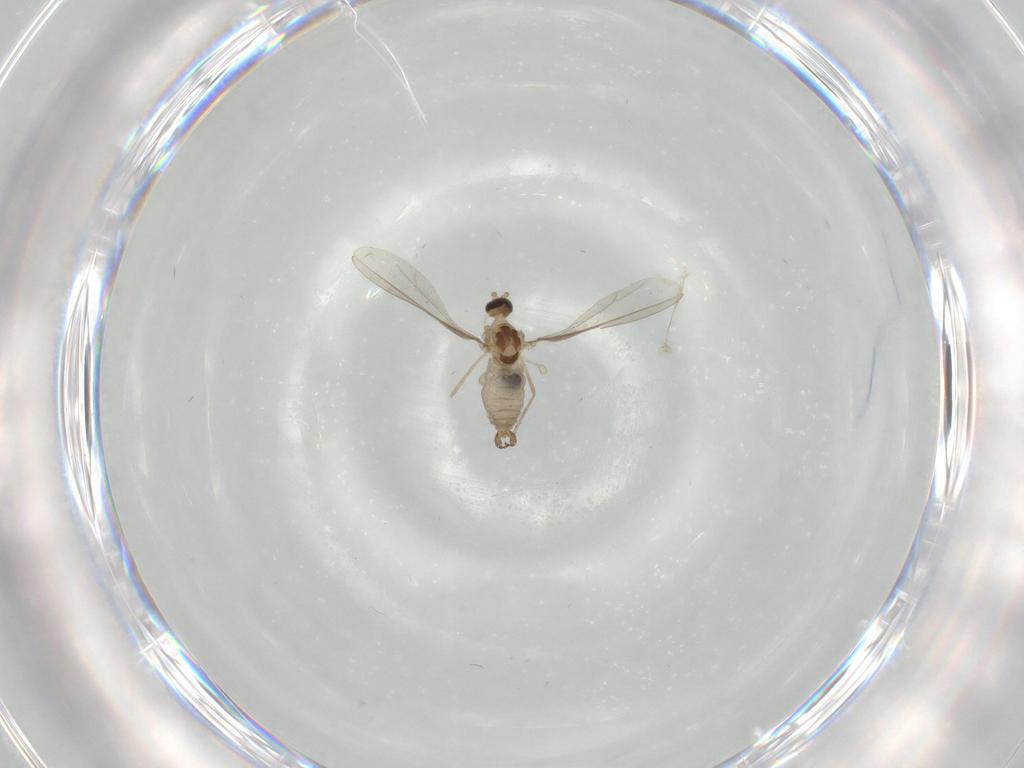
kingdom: Animalia
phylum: Arthropoda
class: Insecta
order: Diptera
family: Cecidomyiidae
